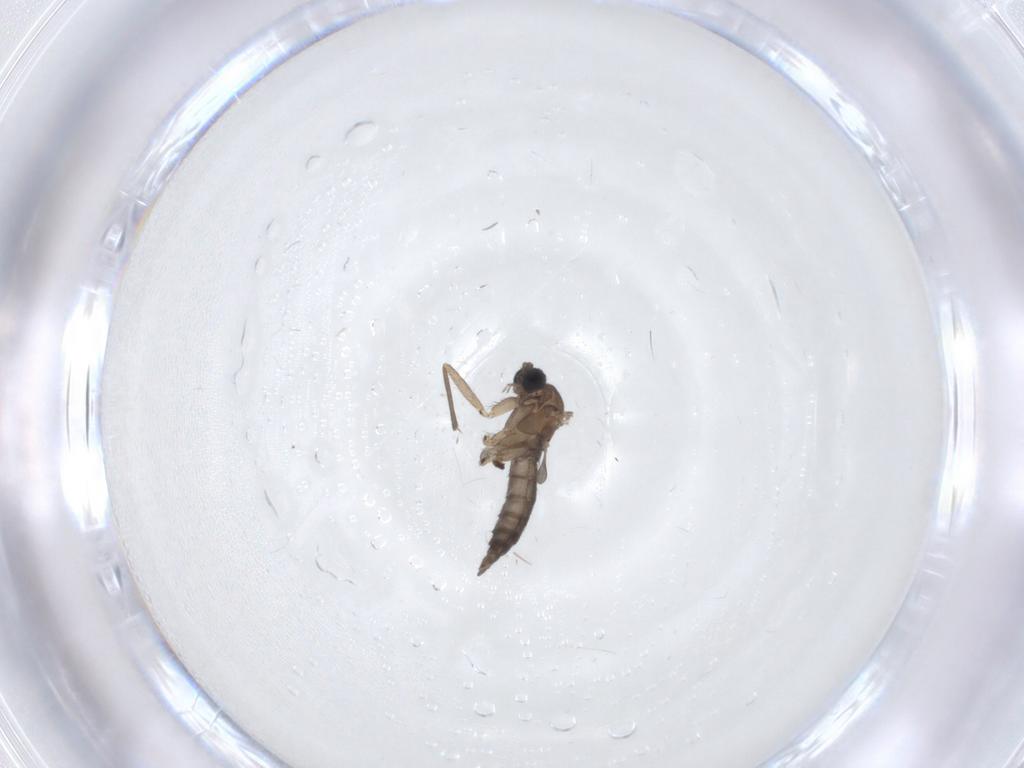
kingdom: Animalia
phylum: Arthropoda
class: Insecta
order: Diptera
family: Sciaridae
